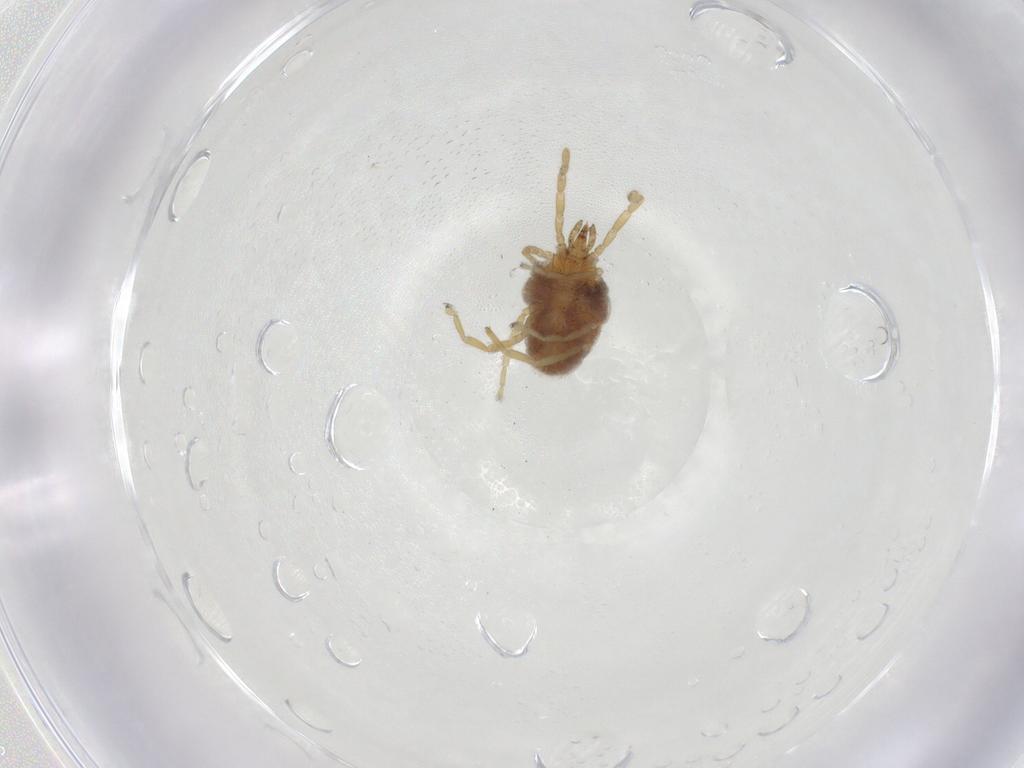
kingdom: Animalia
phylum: Arthropoda
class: Arachnida
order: Trombidiformes
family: Erythraeidae
